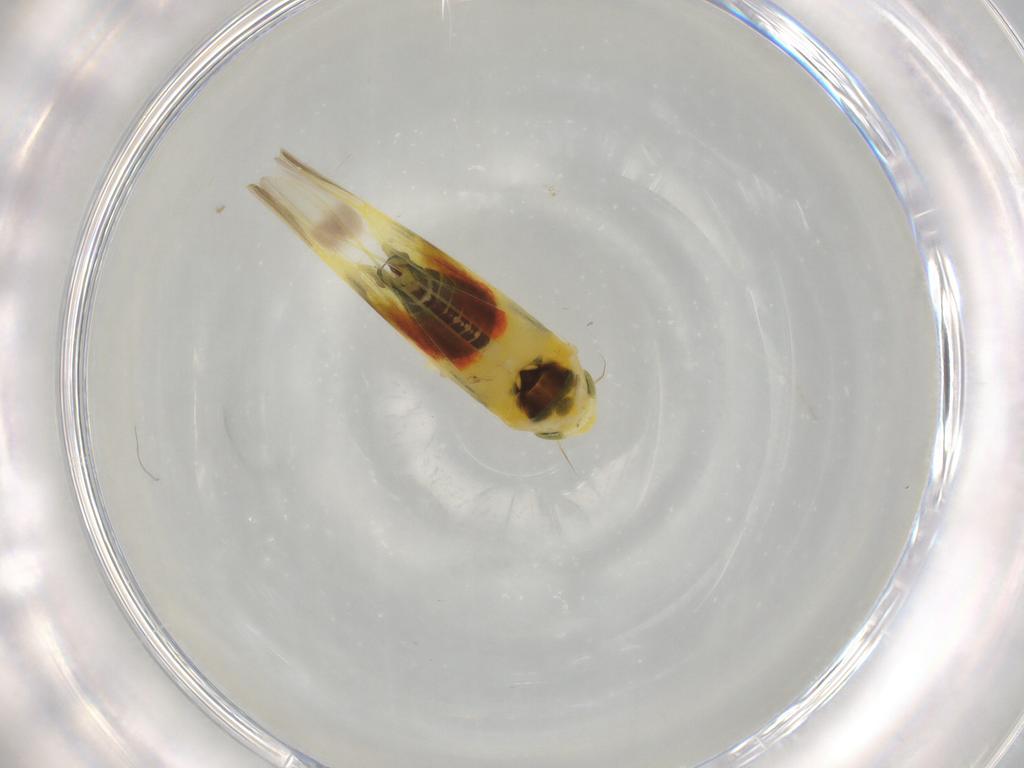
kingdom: Animalia
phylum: Arthropoda
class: Insecta
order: Hemiptera
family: Cicadellidae
